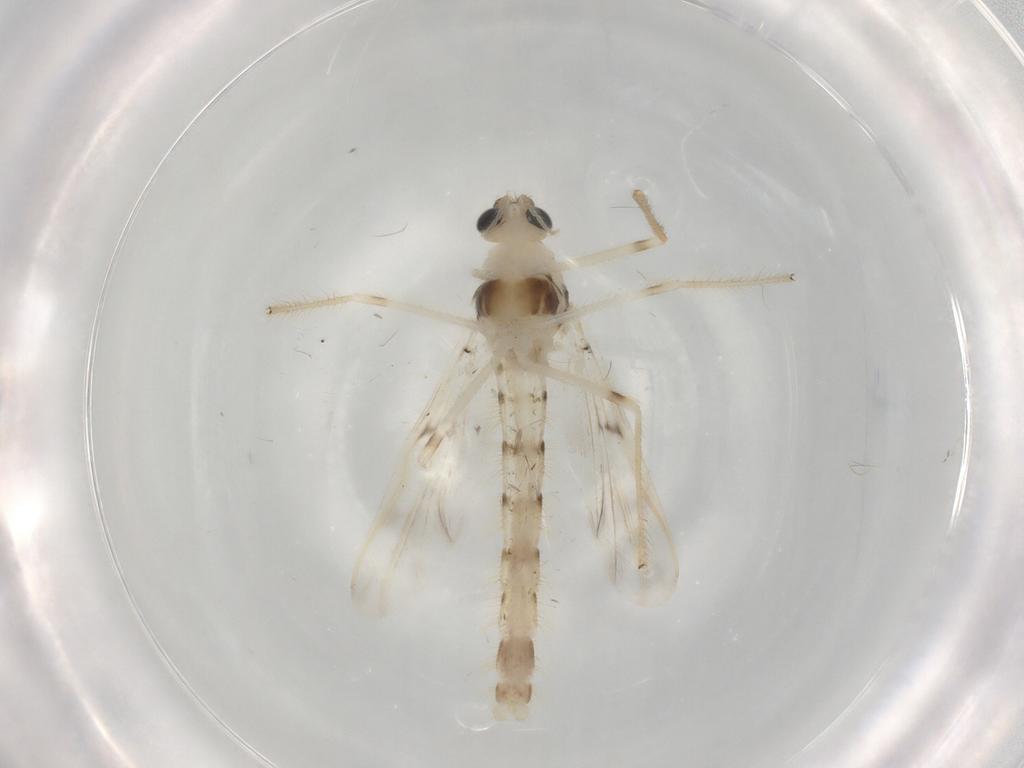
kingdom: Animalia
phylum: Arthropoda
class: Insecta
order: Diptera
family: Chironomidae
